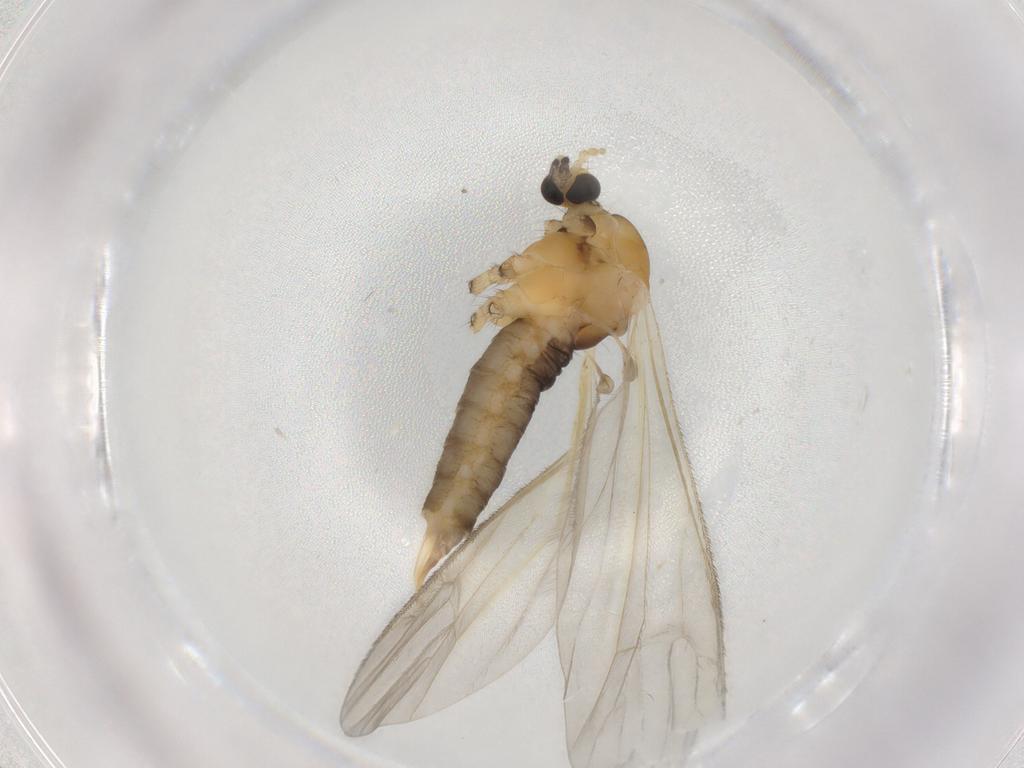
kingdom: Animalia
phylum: Arthropoda
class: Insecta
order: Diptera
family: Limoniidae
